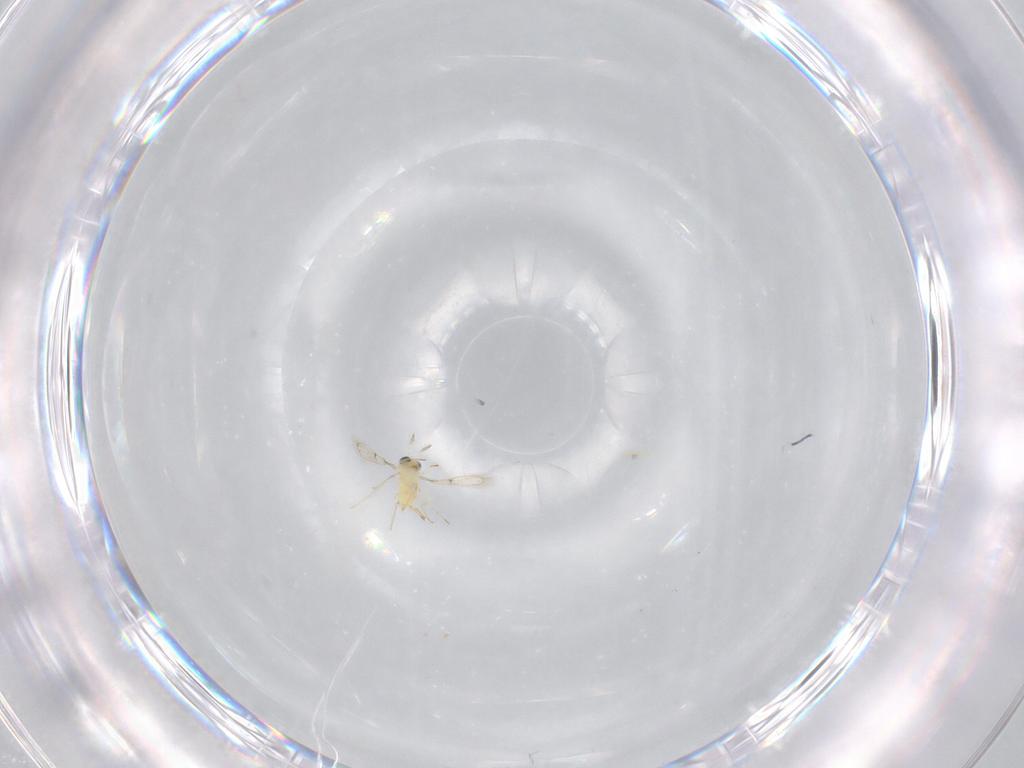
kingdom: Animalia
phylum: Arthropoda
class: Insecta
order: Hymenoptera
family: Trichogrammatidae
